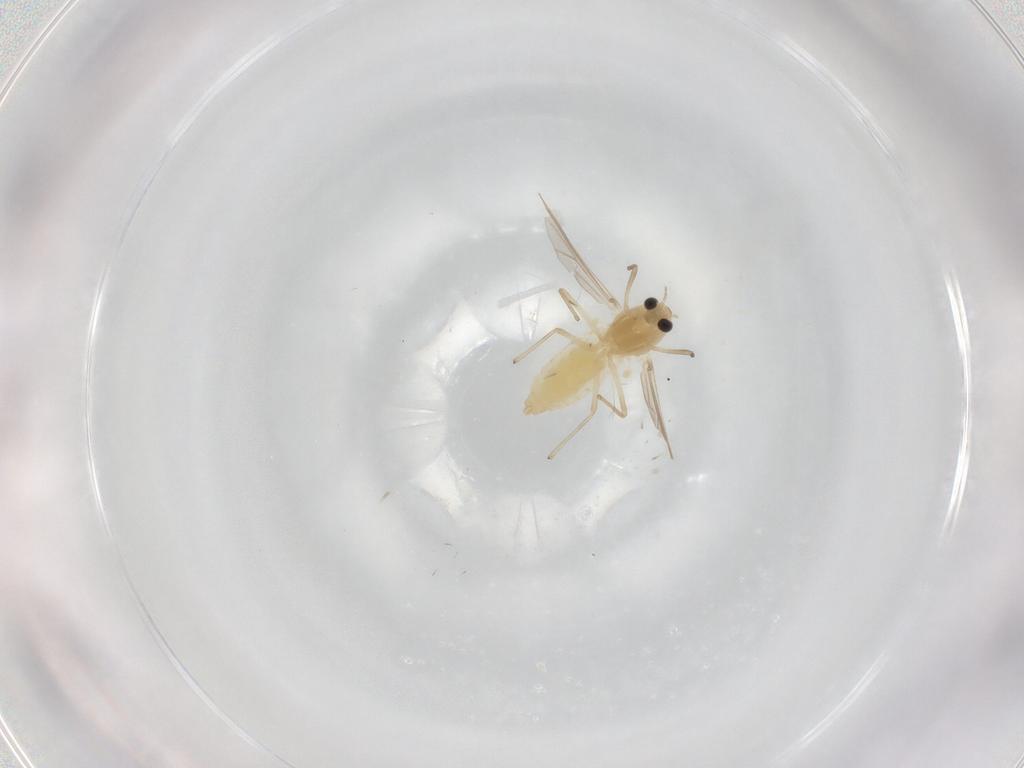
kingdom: Animalia
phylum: Arthropoda
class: Insecta
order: Diptera
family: Chironomidae
